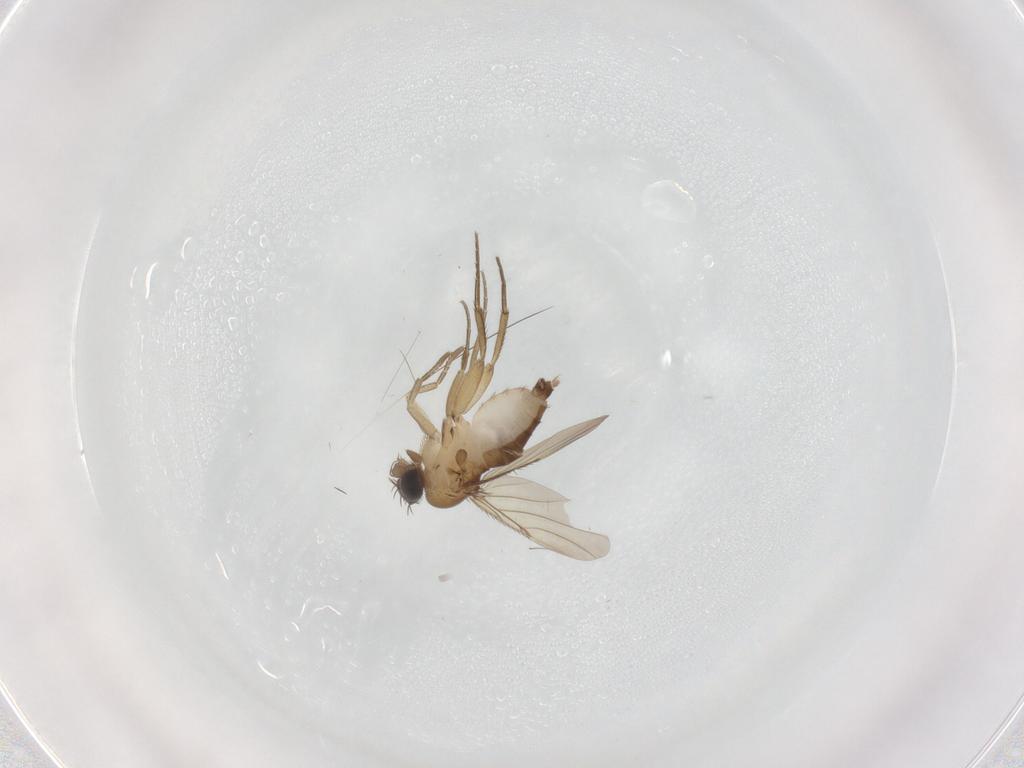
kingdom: Animalia
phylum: Arthropoda
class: Insecta
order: Diptera
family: Phoridae
